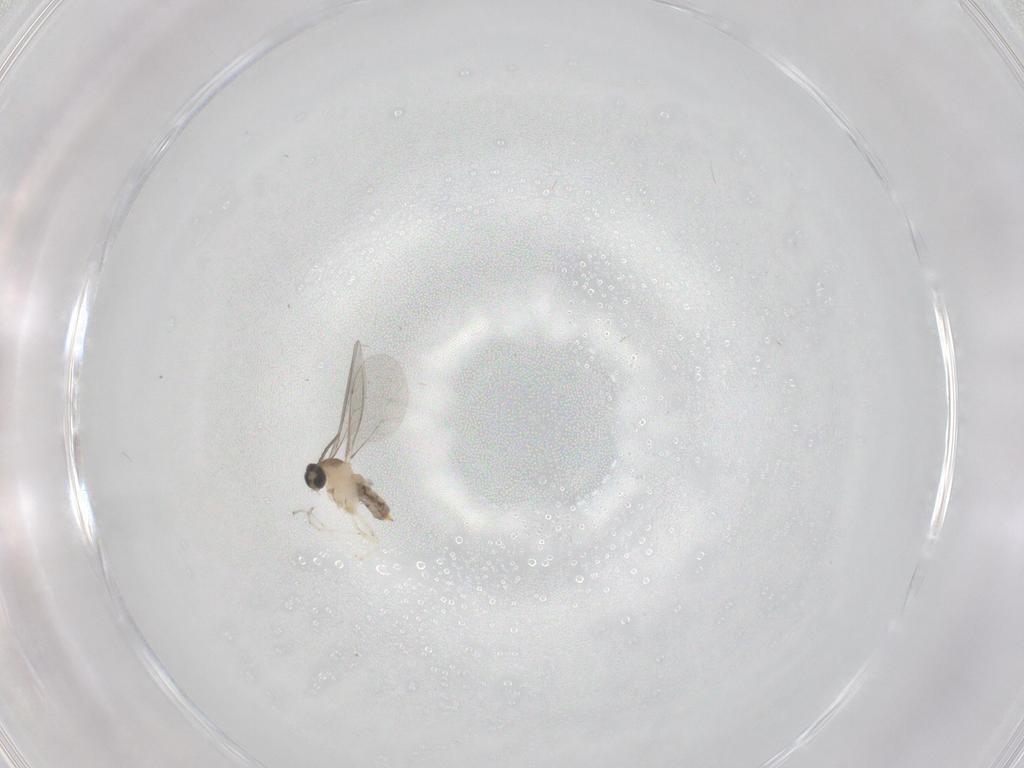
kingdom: Animalia
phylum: Arthropoda
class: Insecta
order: Diptera
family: Cecidomyiidae
